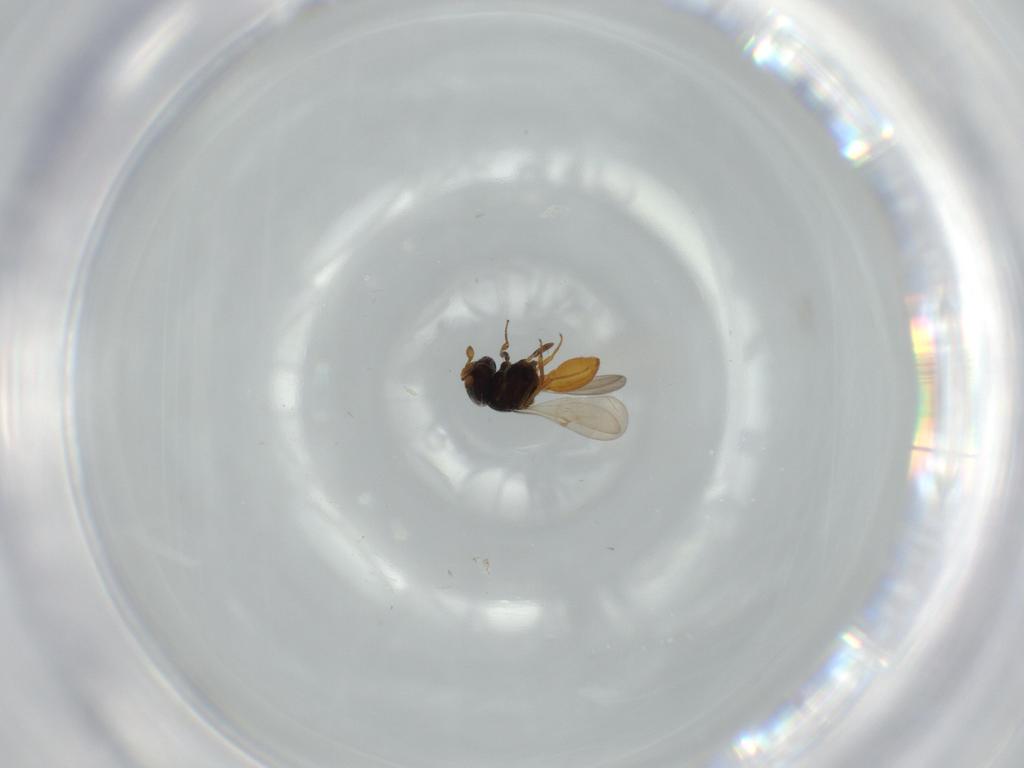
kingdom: Animalia
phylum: Arthropoda
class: Insecta
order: Hymenoptera
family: Scelionidae
